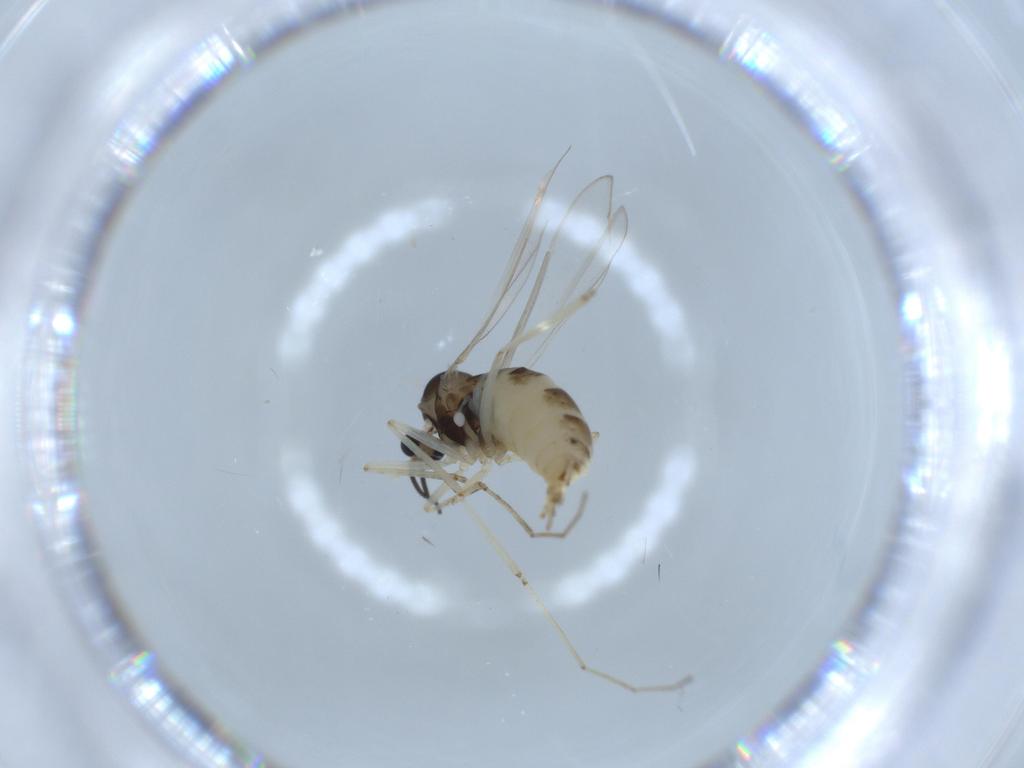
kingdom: Animalia
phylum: Arthropoda
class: Insecta
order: Diptera
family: Cecidomyiidae
